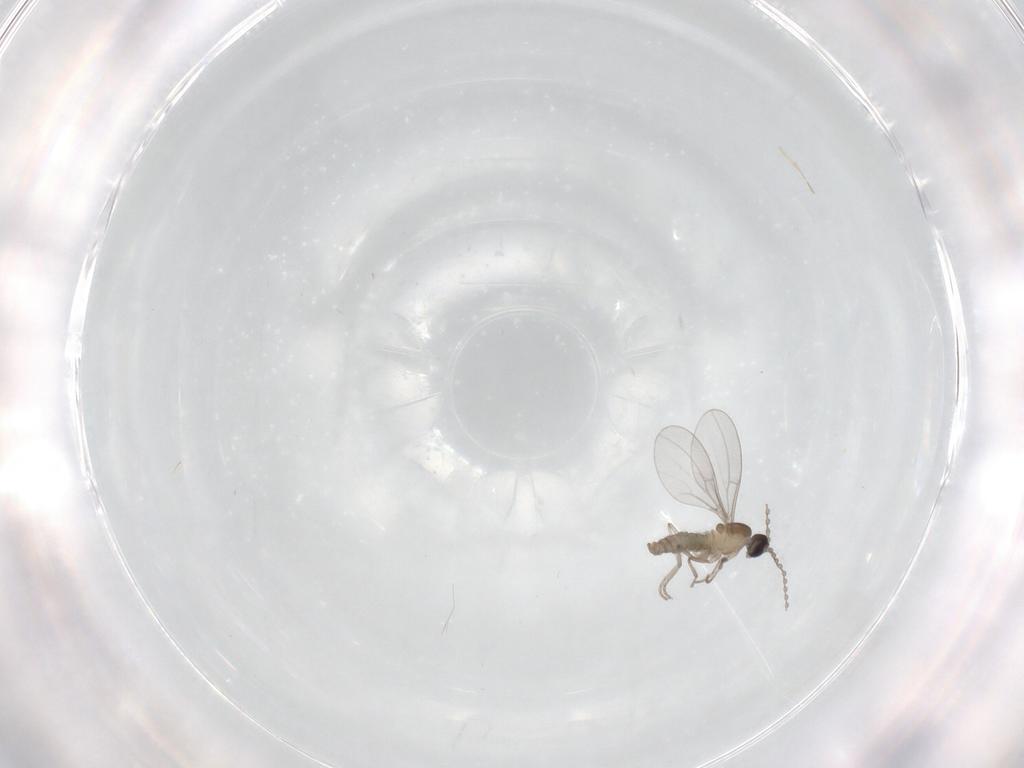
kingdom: Animalia
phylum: Arthropoda
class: Insecta
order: Diptera
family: Cecidomyiidae
